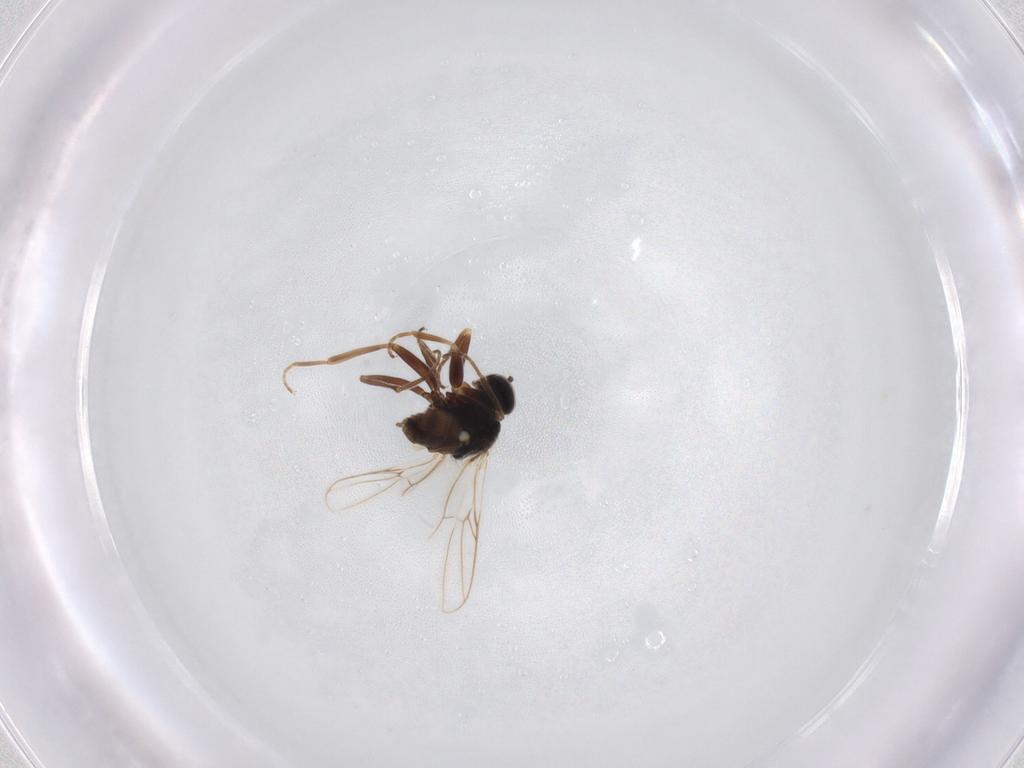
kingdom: Animalia
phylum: Arthropoda
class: Insecta
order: Diptera
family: Hybotidae
